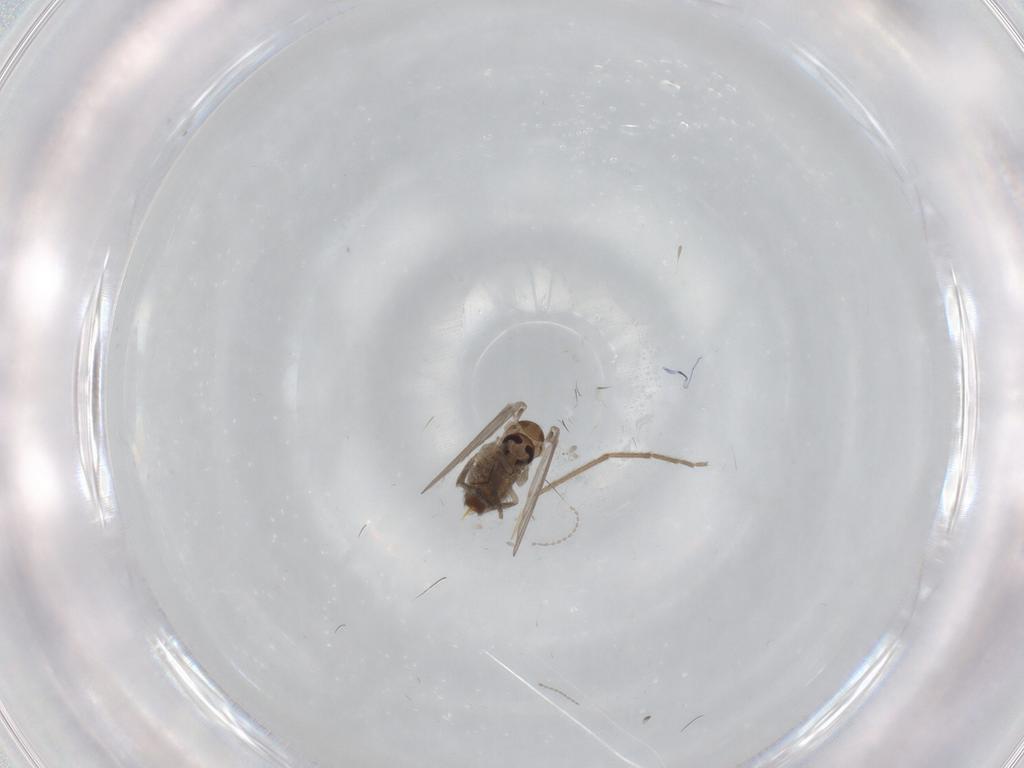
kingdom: Animalia
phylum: Arthropoda
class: Insecta
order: Diptera
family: Psychodidae
